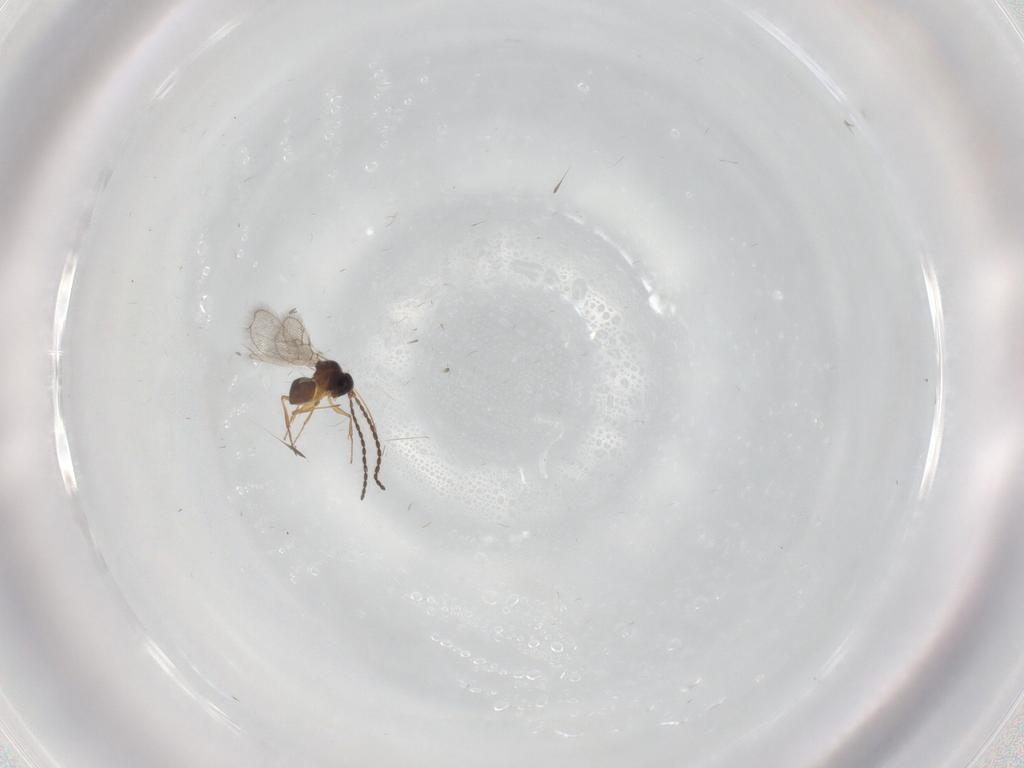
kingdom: Animalia
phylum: Arthropoda
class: Insecta
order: Hymenoptera
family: Figitidae
